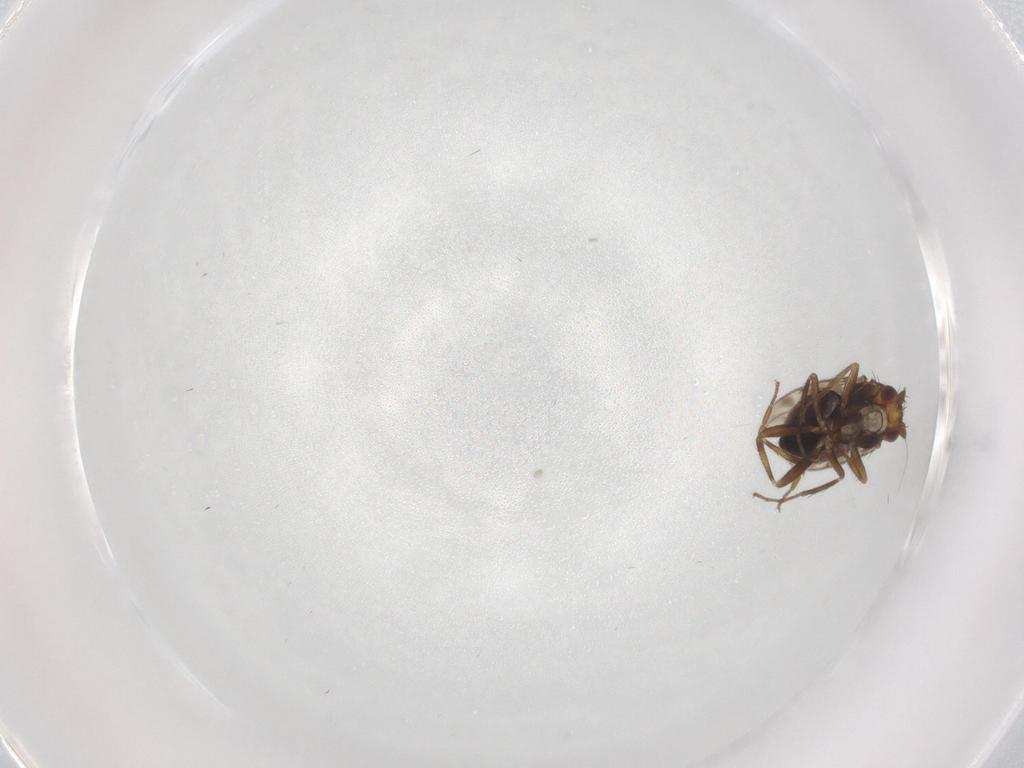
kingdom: Animalia
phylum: Arthropoda
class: Insecta
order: Diptera
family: Sphaeroceridae
